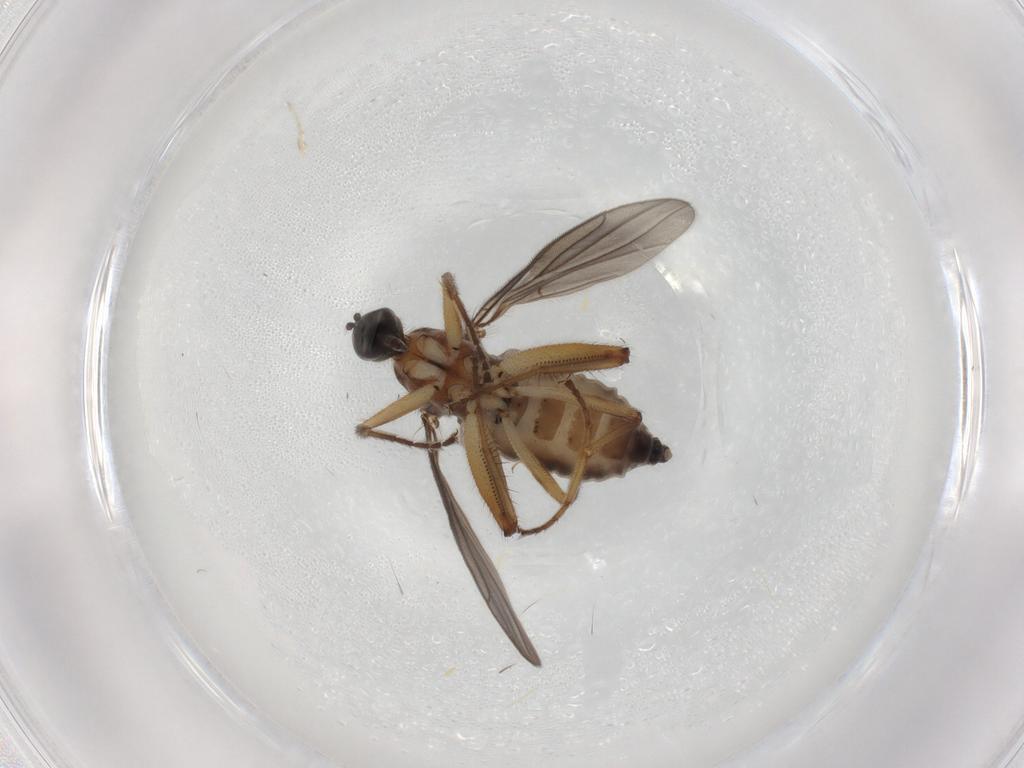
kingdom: Animalia
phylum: Arthropoda
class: Insecta
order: Diptera
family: Hybotidae
